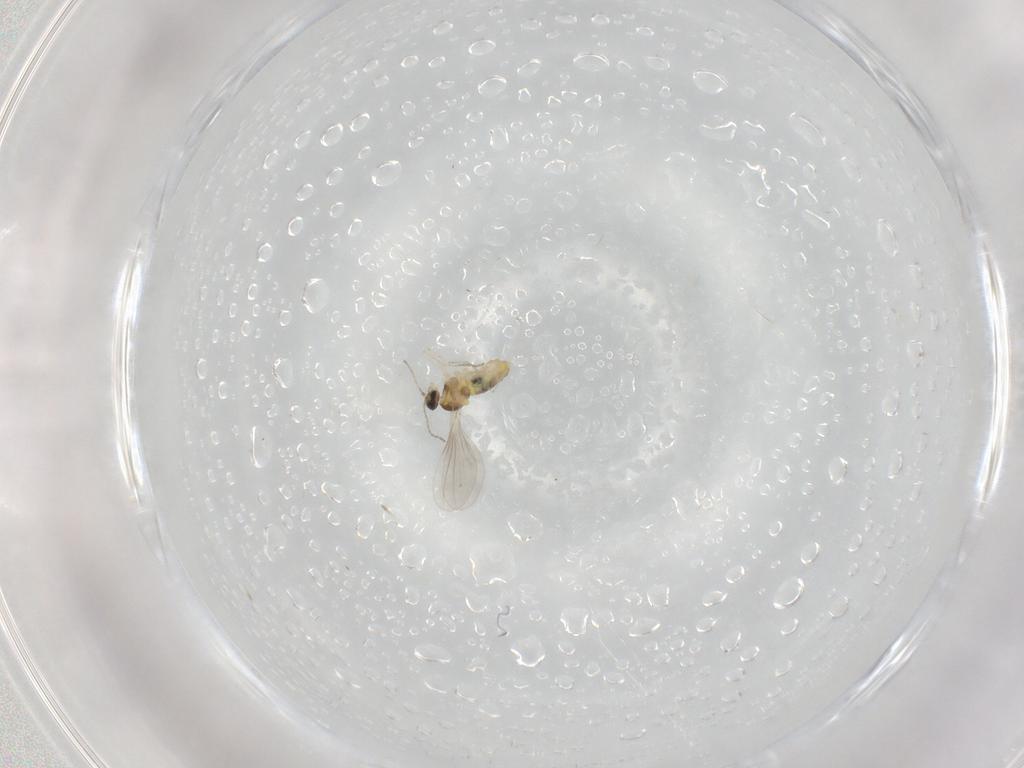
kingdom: Animalia
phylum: Arthropoda
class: Insecta
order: Diptera
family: Cecidomyiidae
